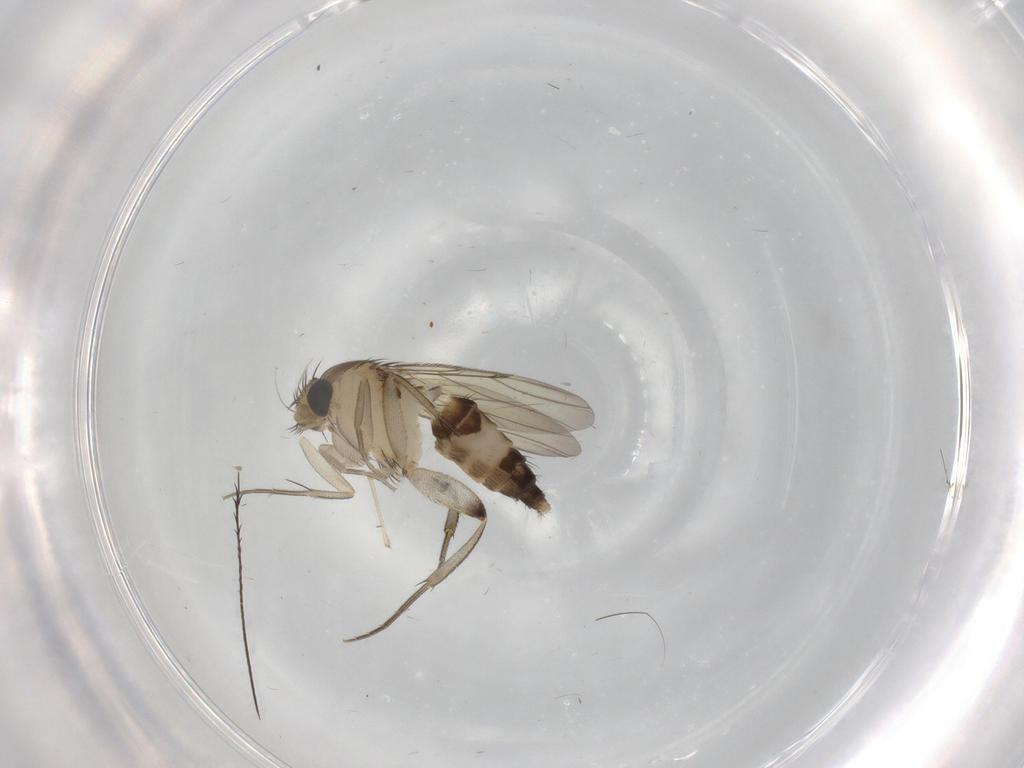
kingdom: Animalia
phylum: Arthropoda
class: Insecta
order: Diptera
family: Phoridae
